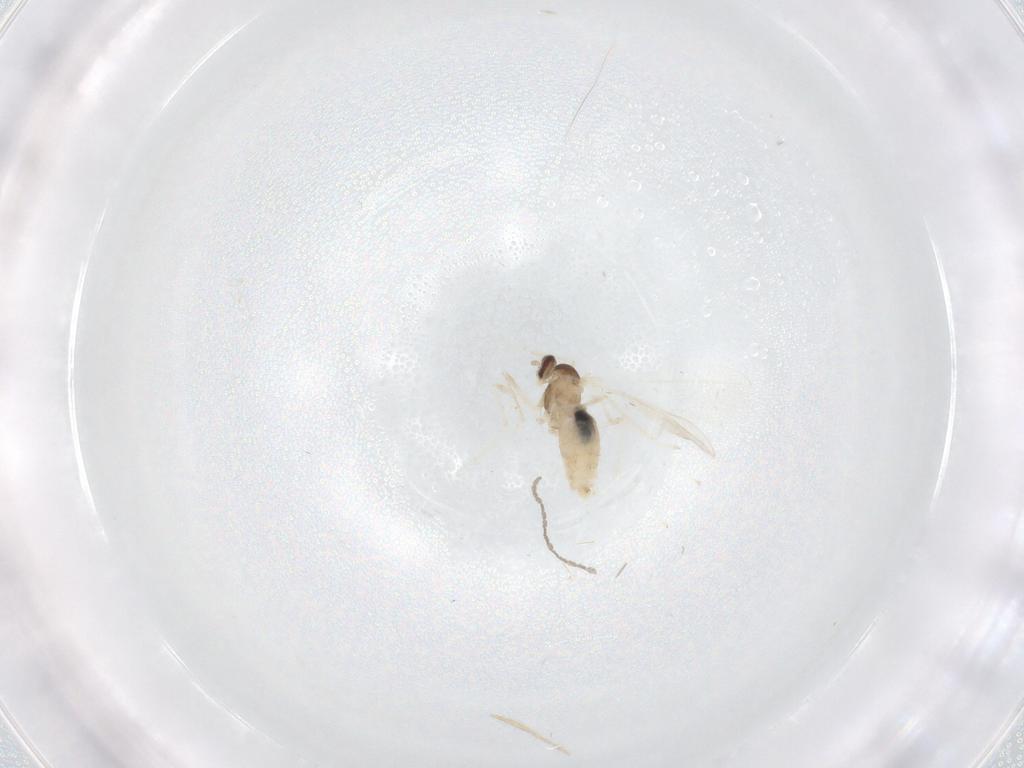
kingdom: Animalia
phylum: Arthropoda
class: Insecta
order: Diptera
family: Cecidomyiidae
